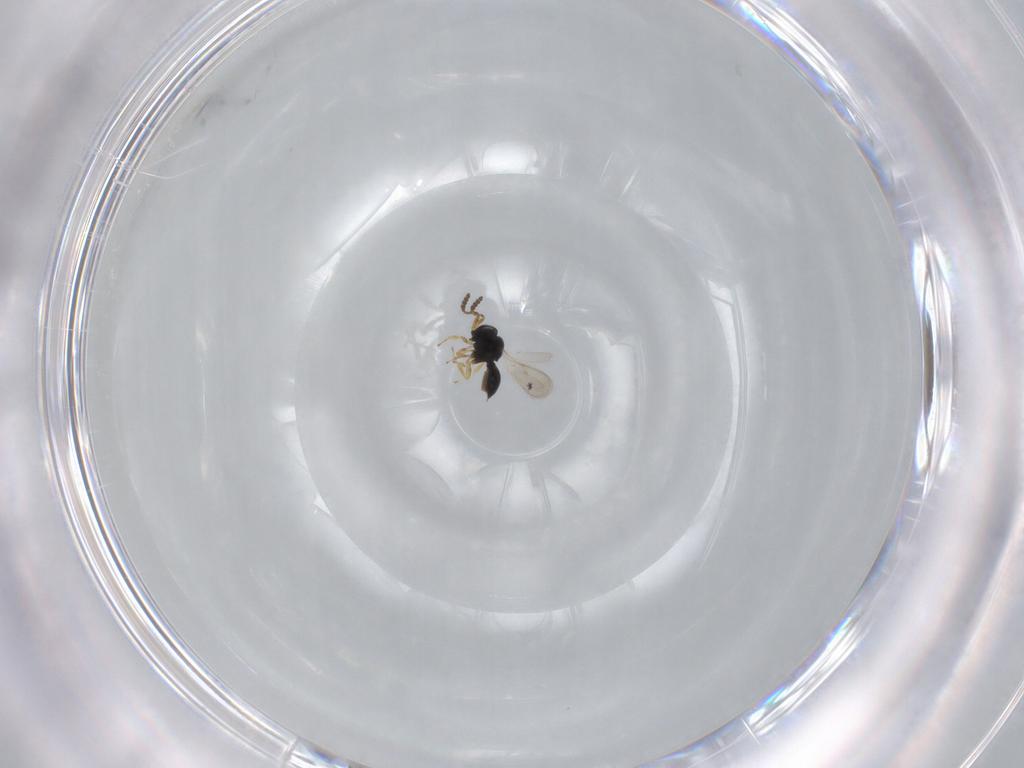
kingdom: Animalia
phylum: Arthropoda
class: Insecta
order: Hymenoptera
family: Scelionidae
